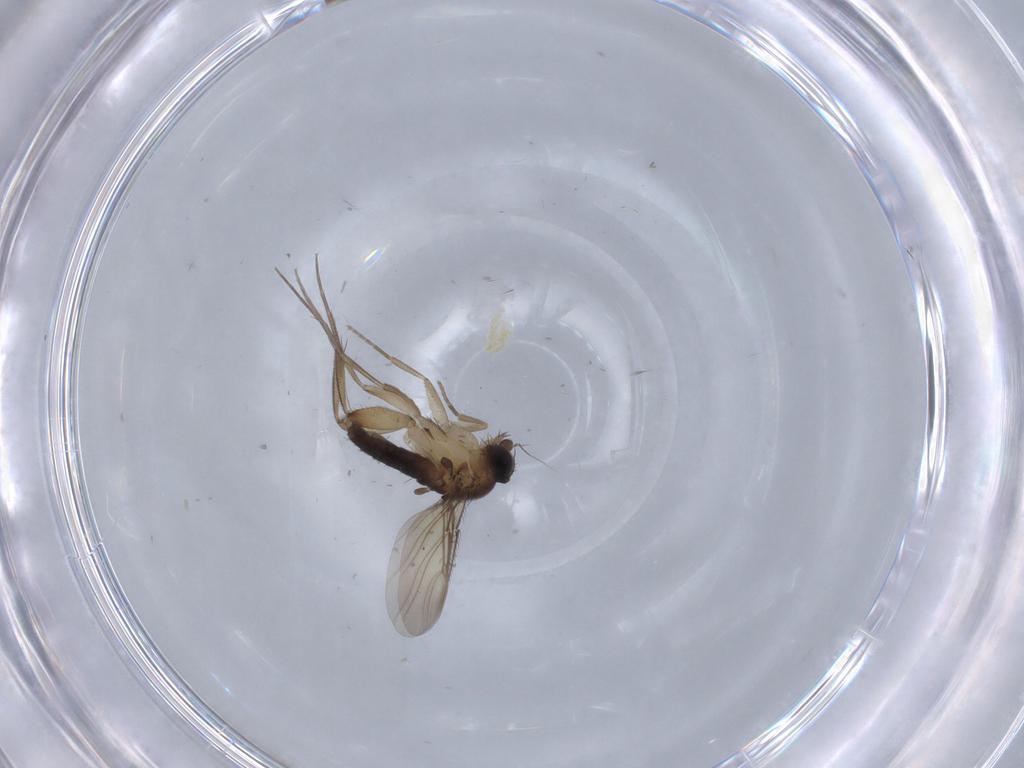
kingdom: Animalia
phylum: Arthropoda
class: Insecta
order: Diptera
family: Phoridae
